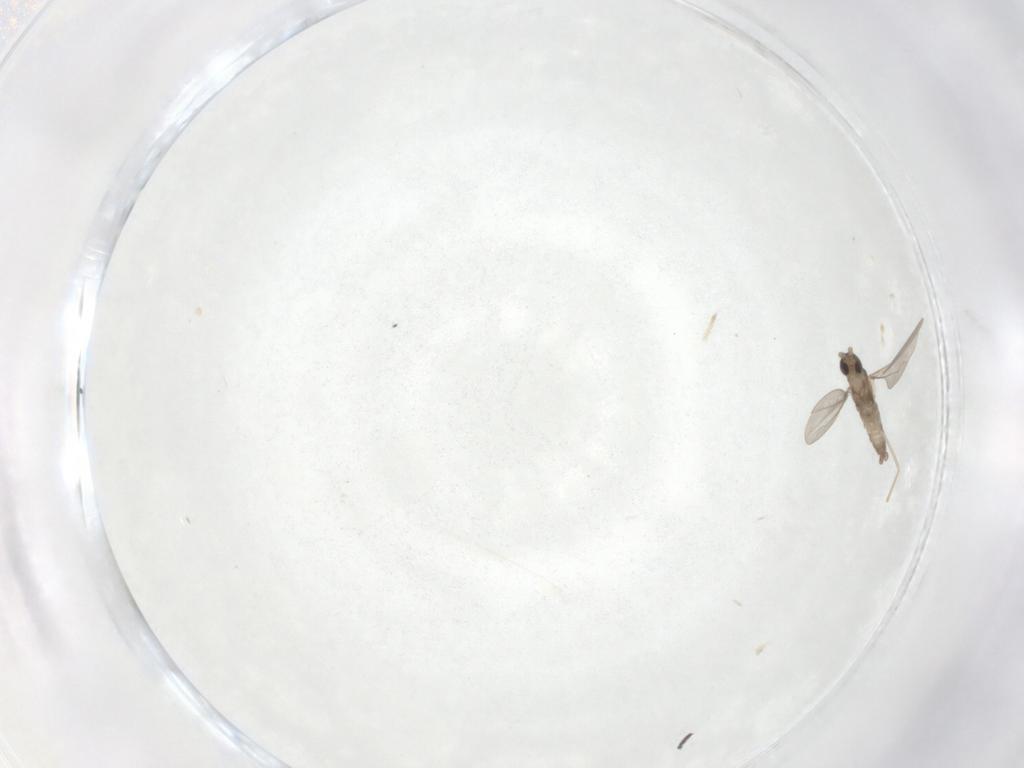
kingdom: Animalia
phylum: Arthropoda
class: Insecta
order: Diptera
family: Cecidomyiidae
